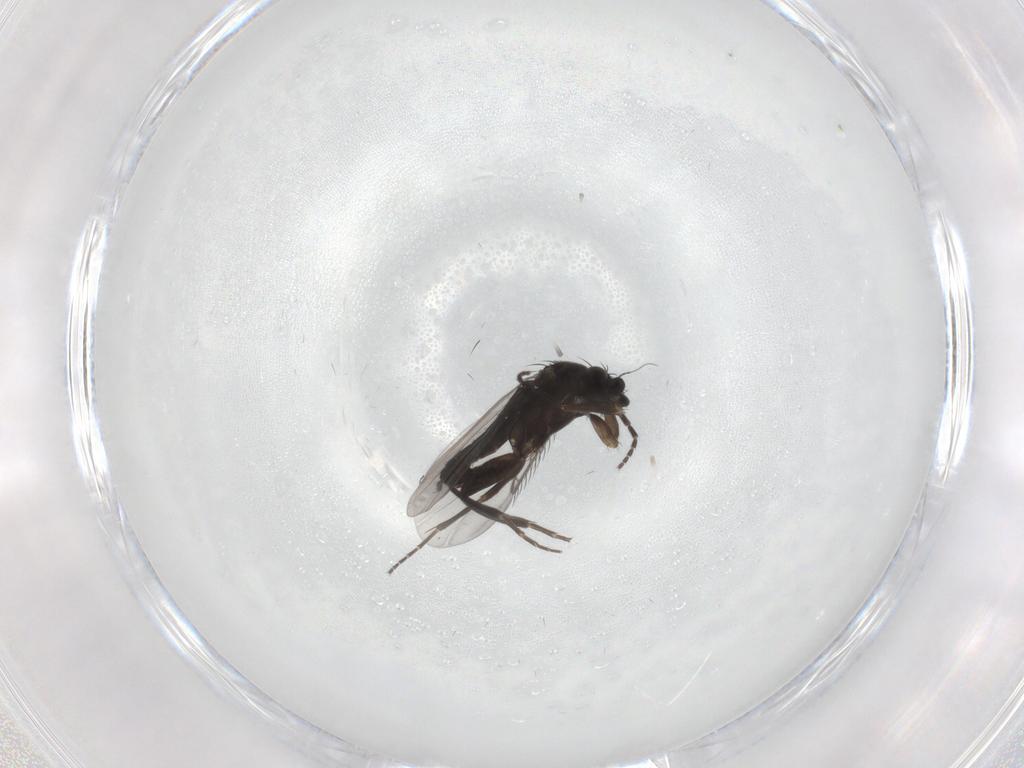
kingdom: Animalia
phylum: Arthropoda
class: Insecta
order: Diptera
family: Phoridae
